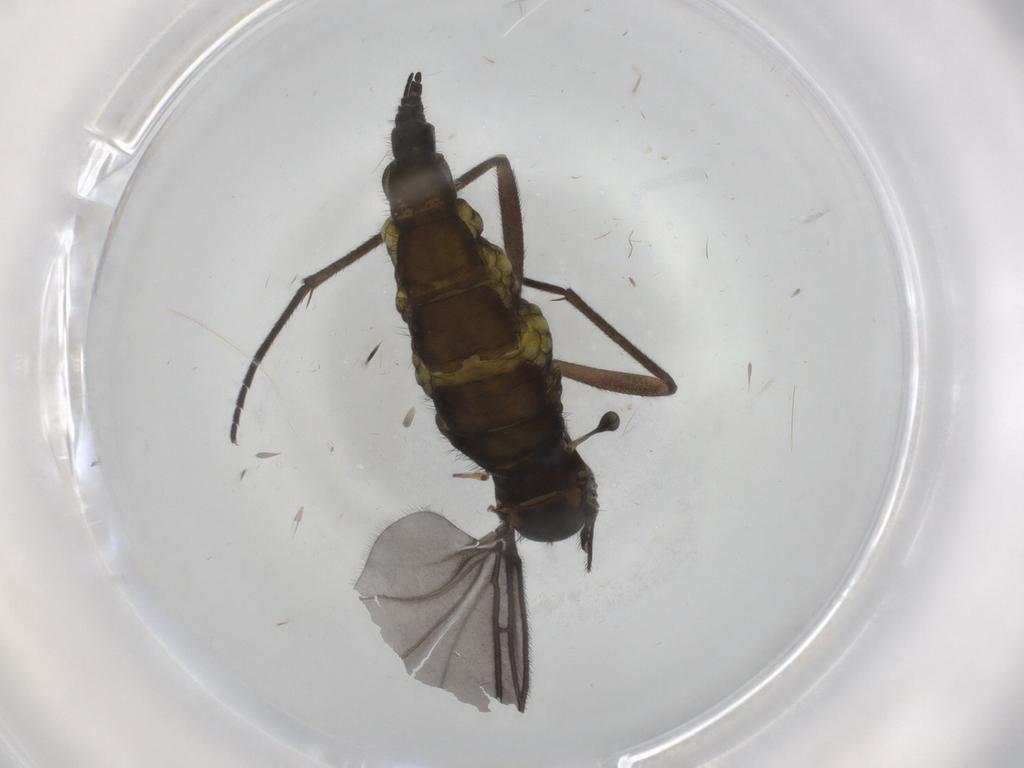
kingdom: Animalia
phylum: Arthropoda
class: Insecta
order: Diptera
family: Sciaridae
